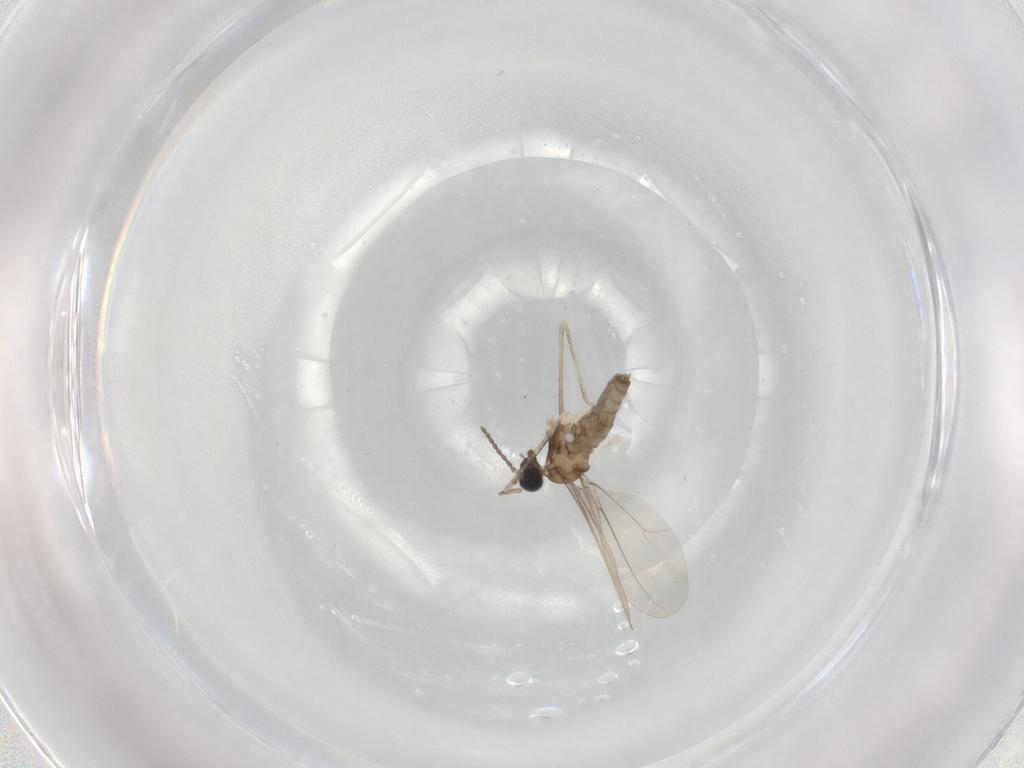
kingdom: Animalia
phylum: Arthropoda
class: Insecta
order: Diptera
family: Cecidomyiidae
